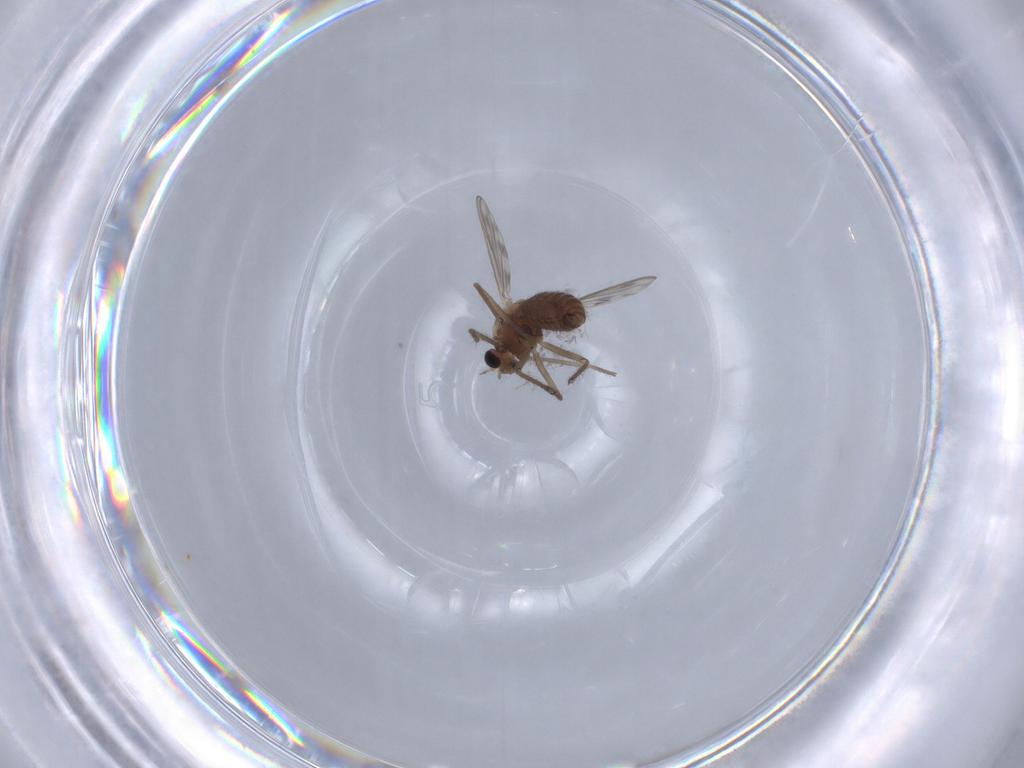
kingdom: Animalia
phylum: Arthropoda
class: Insecta
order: Diptera
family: Chironomidae
